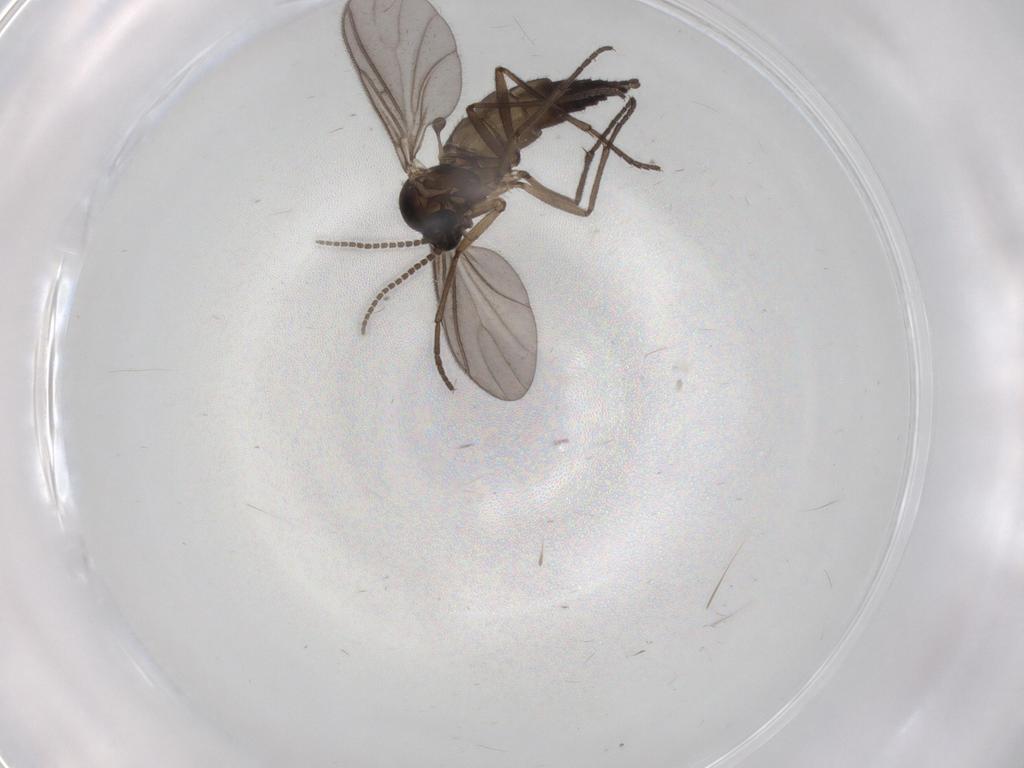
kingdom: Animalia
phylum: Arthropoda
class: Insecta
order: Diptera
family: Sciaridae
